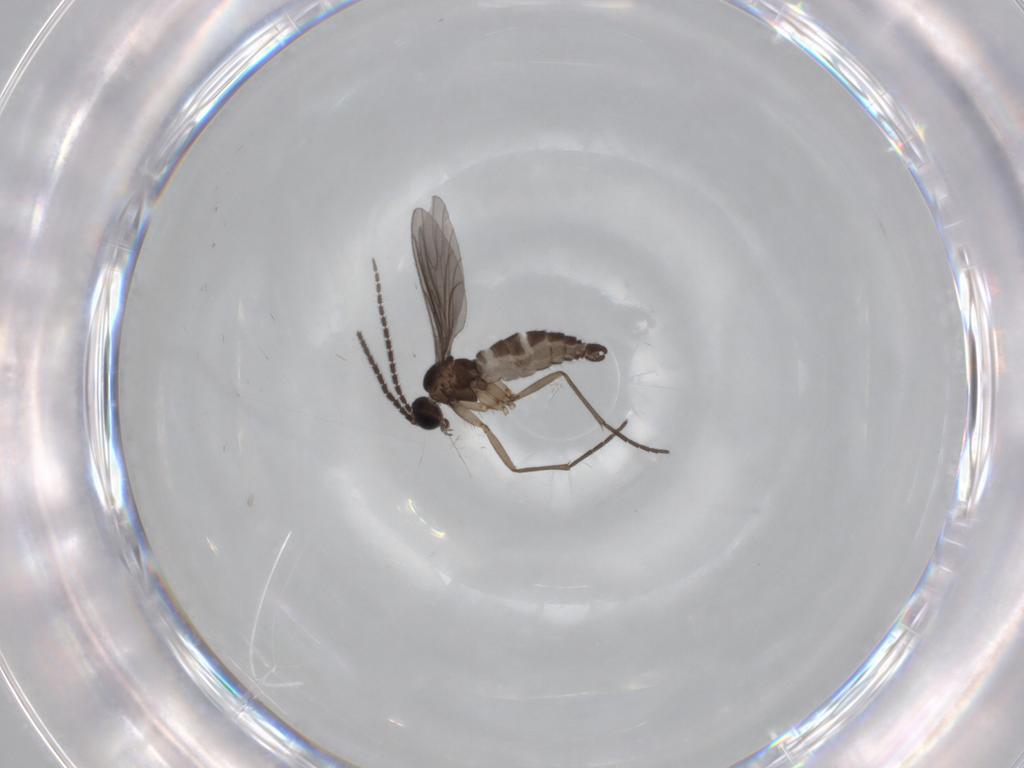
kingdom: Animalia
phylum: Arthropoda
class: Insecta
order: Diptera
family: Sciaridae
